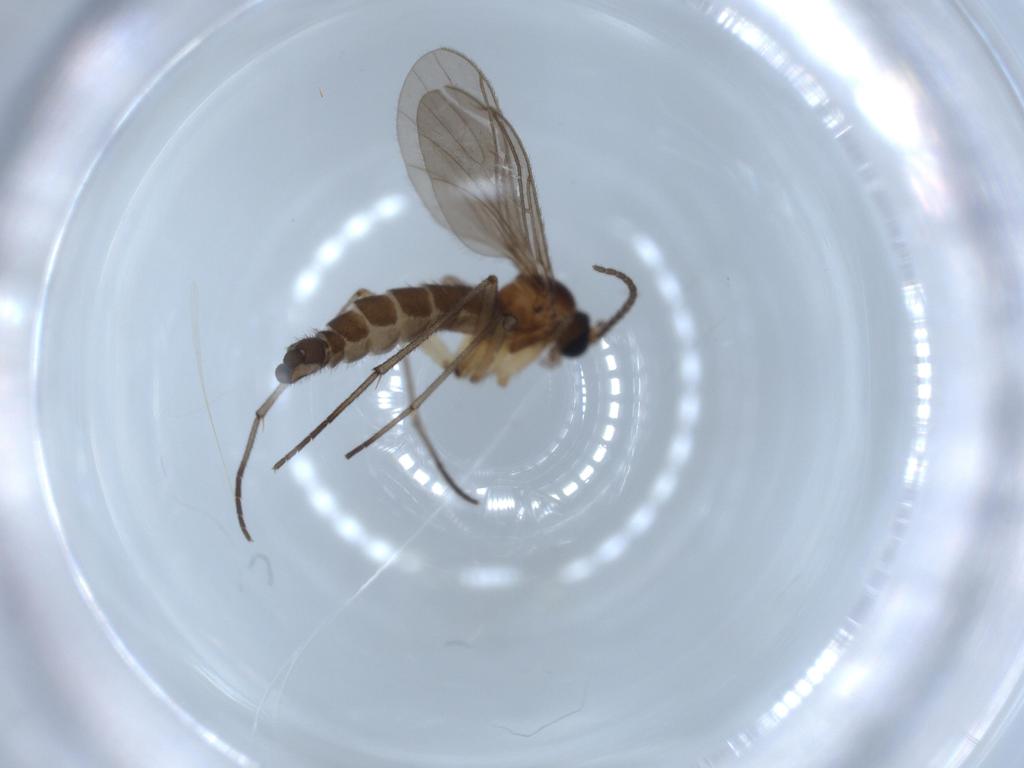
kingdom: Animalia
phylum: Arthropoda
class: Insecta
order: Diptera
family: Sciaridae
